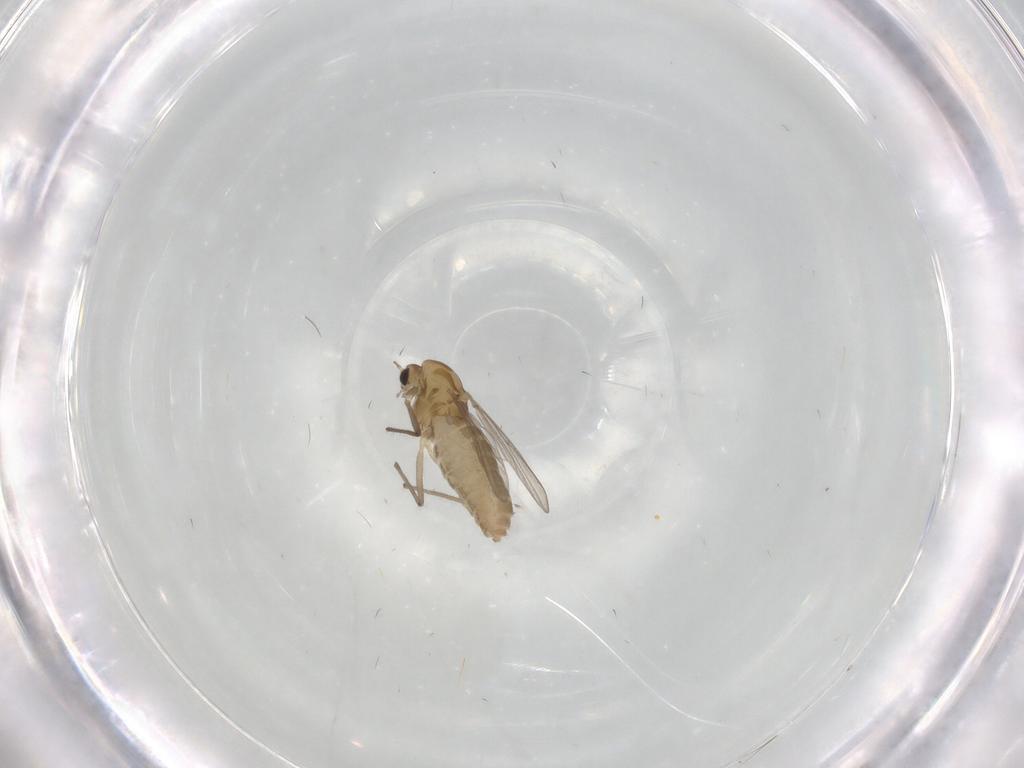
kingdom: Animalia
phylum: Arthropoda
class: Insecta
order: Diptera
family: Chironomidae
